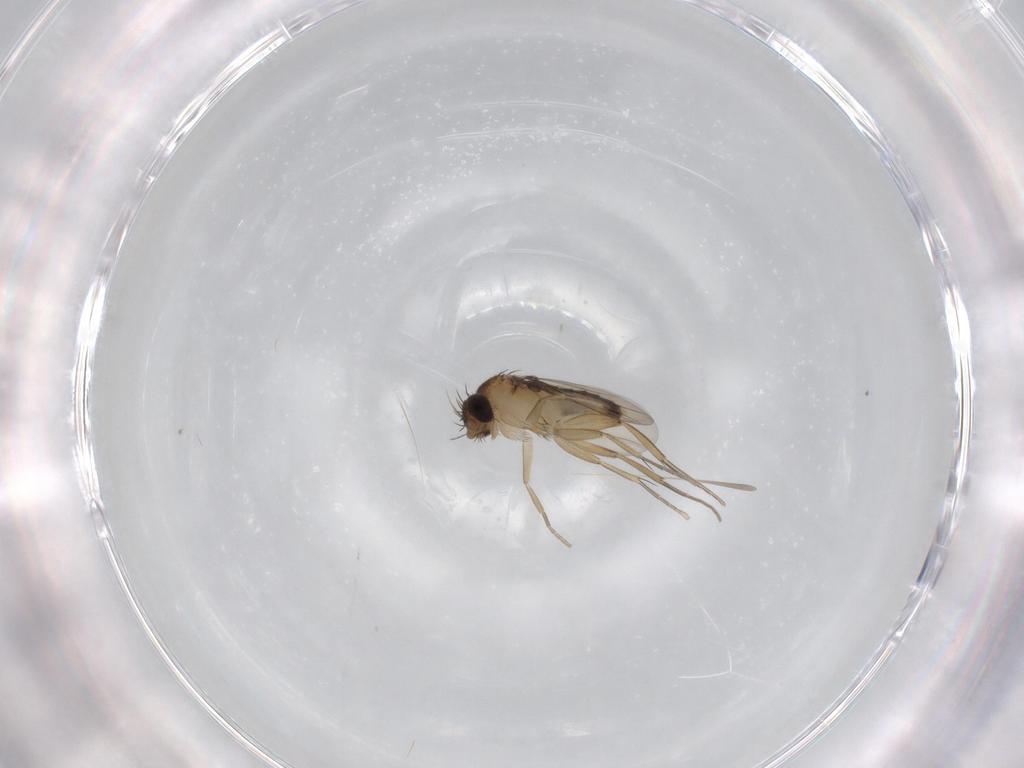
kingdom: Animalia
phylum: Arthropoda
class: Insecta
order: Diptera
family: Phoridae
